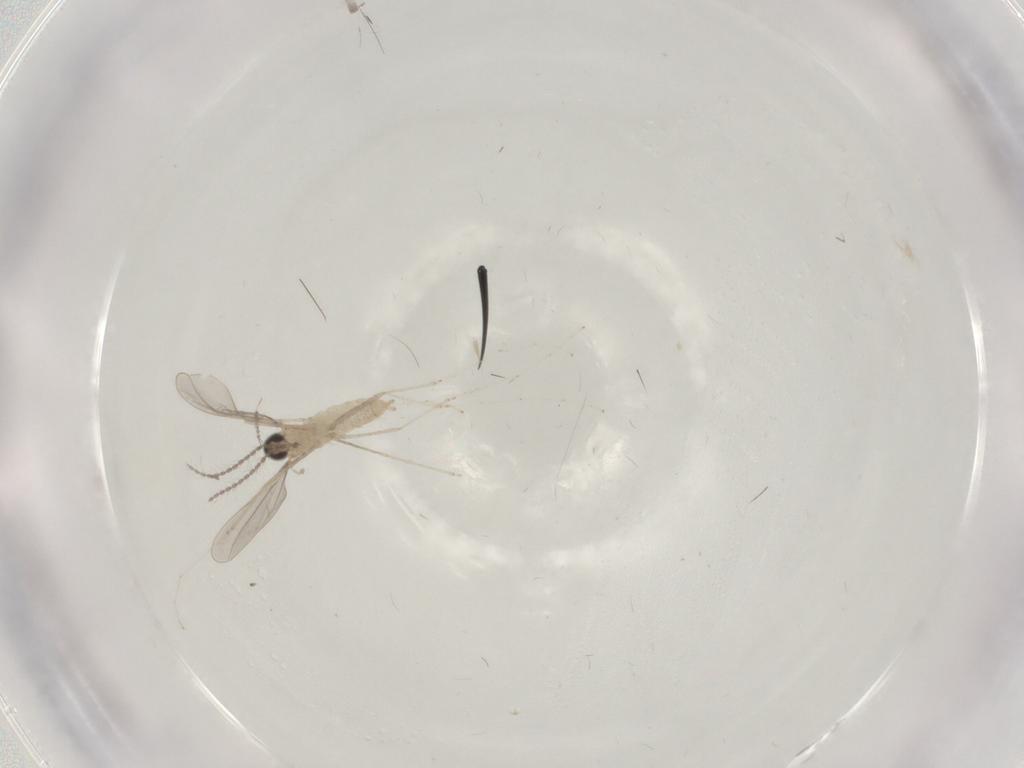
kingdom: Animalia
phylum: Arthropoda
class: Insecta
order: Diptera
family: Cecidomyiidae
